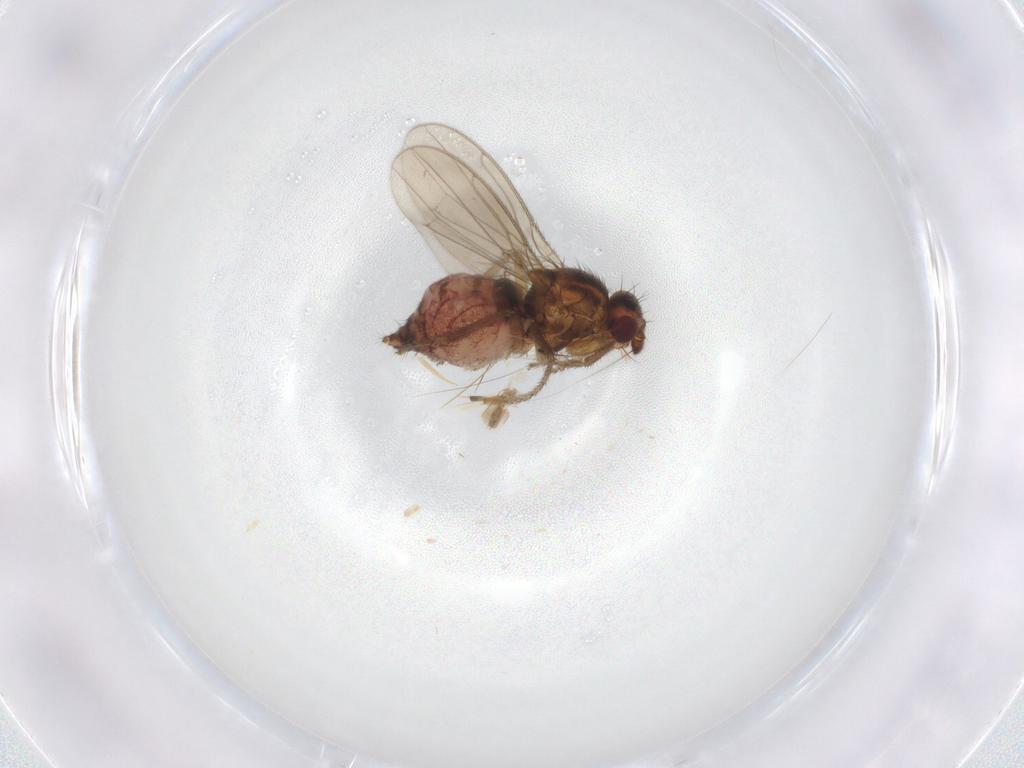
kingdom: Animalia
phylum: Arthropoda
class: Insecta
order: Diptera
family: Sphaeroceridae
